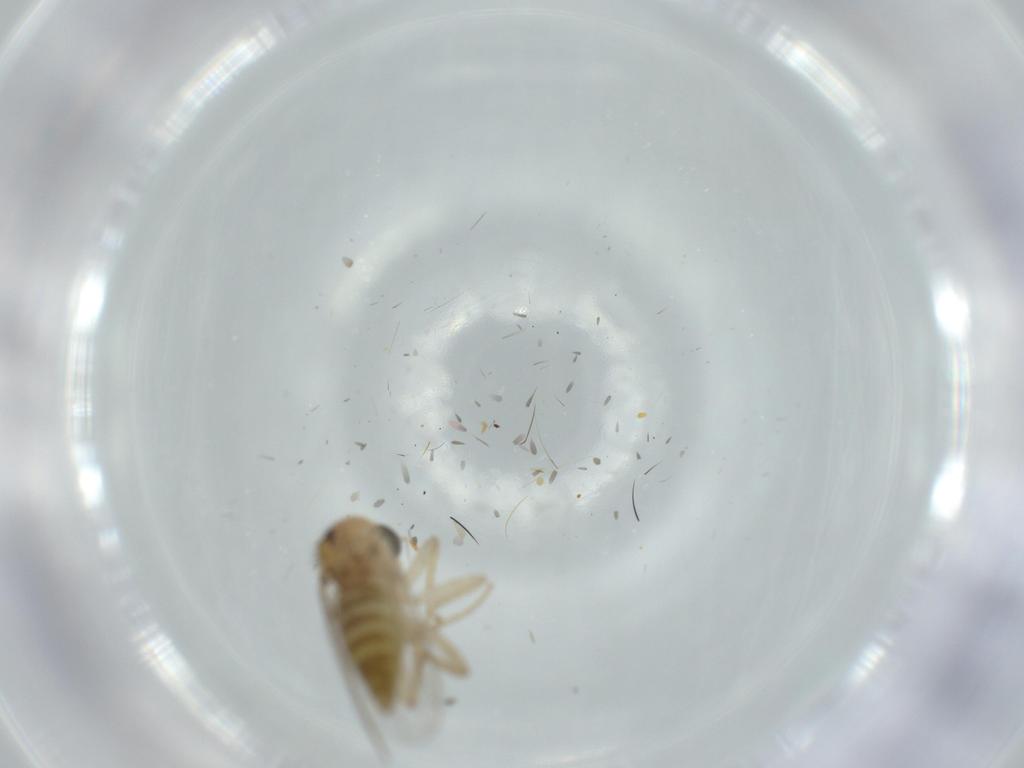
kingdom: Animalia
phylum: Arthropoda
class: Insecta
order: Diptera
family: Hybotidae
